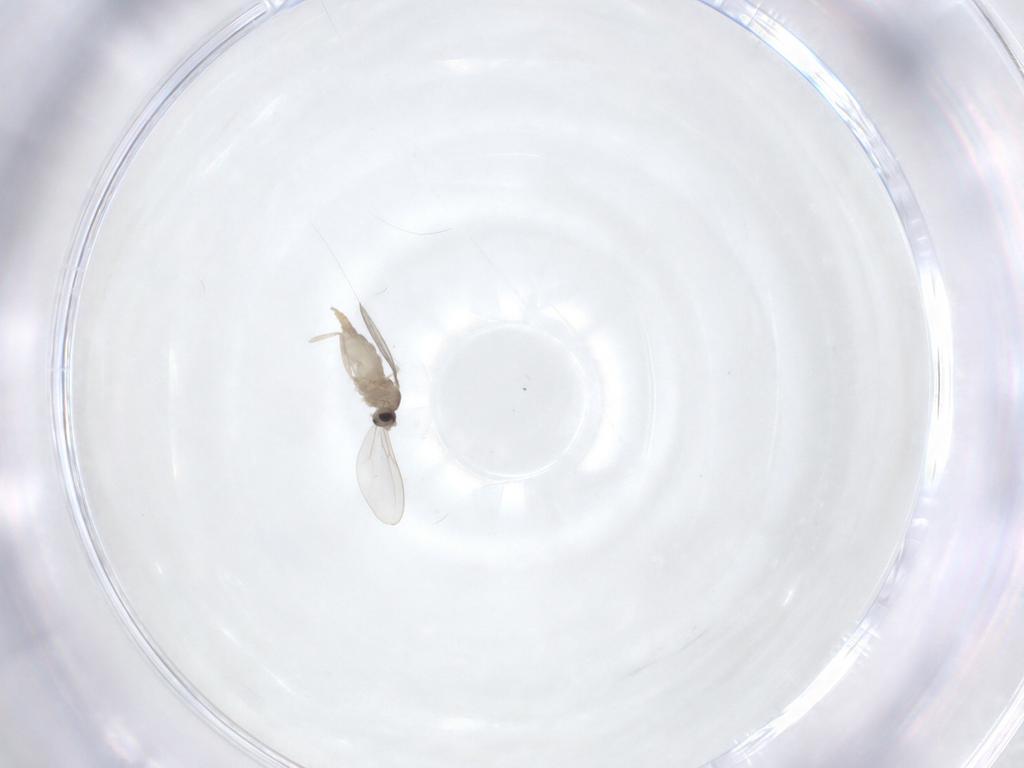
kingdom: Animalia
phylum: Arthropoda
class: Insecta
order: Diptera
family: Cecidomyiidae
